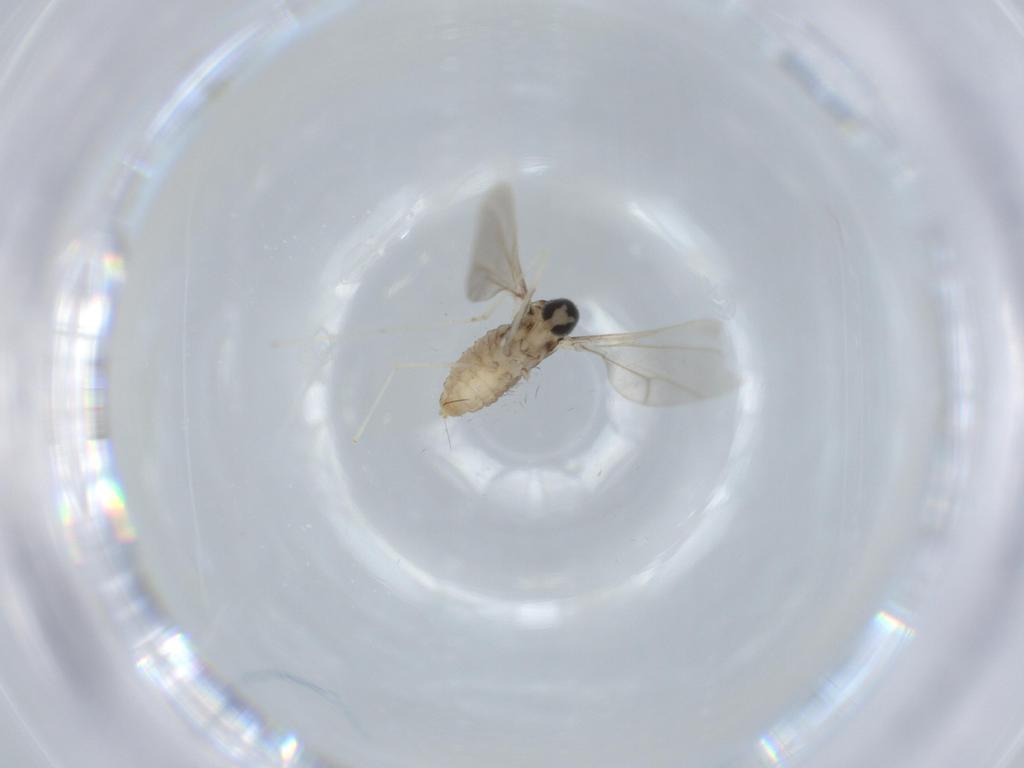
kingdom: Animalia
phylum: Arthropoda
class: Insecta
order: Diptera
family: Cecidomyiidae
